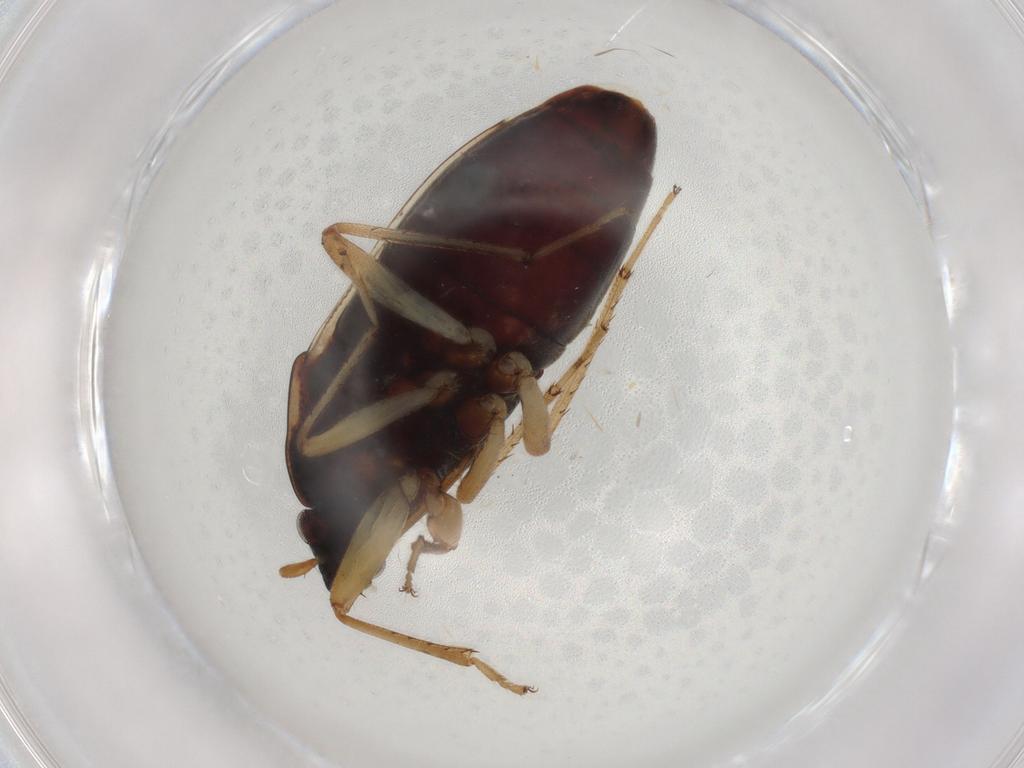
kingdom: Animalia
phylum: Arthropoda
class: Insecta
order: Hemiptera
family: Rhyparochromidae
